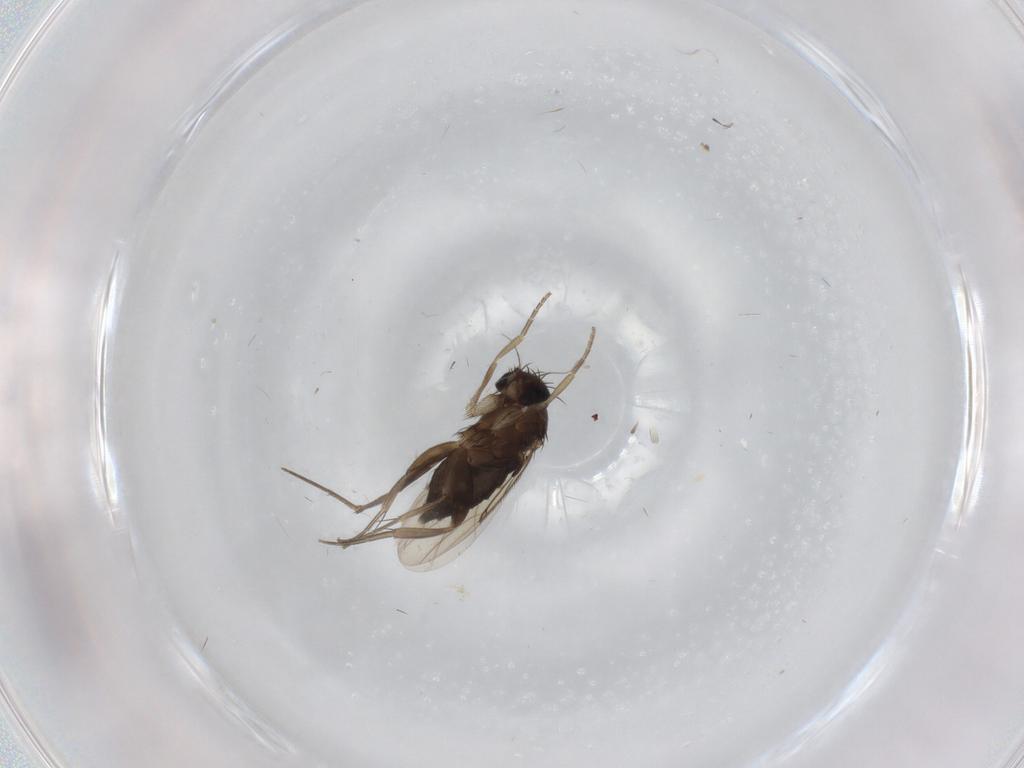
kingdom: Animalia
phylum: Arthropoda
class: Insecta
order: Diptera
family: Phoridae
